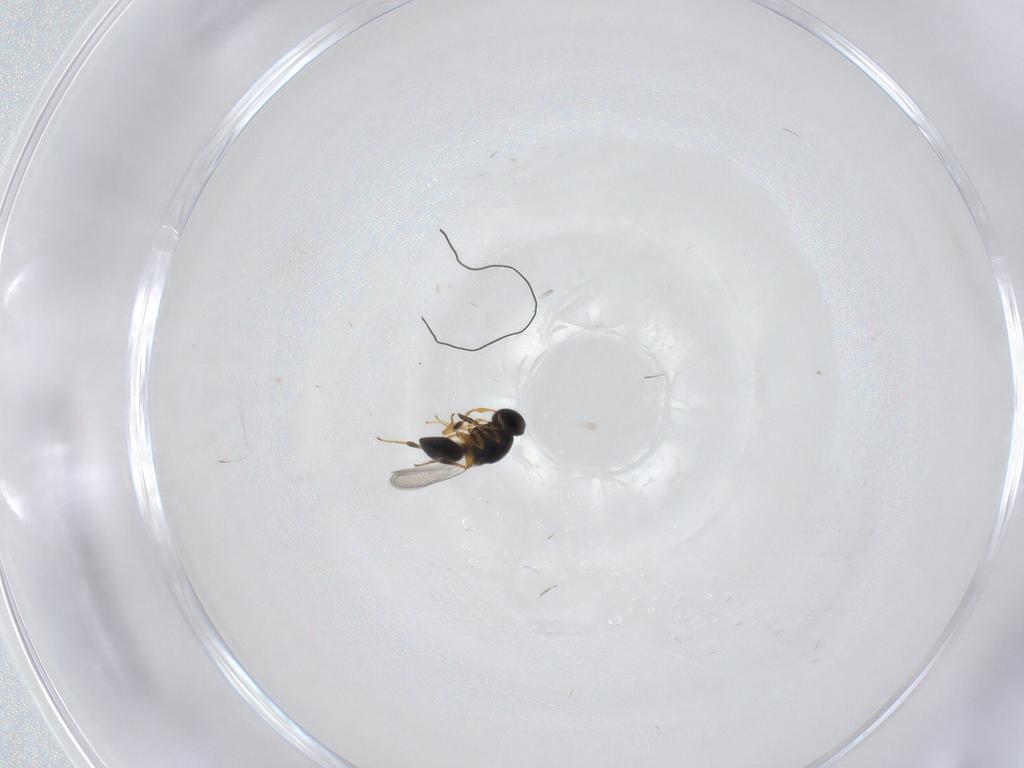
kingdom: Animalia
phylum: Arthropoda
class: Insecta
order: Hymenoptera
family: Platygastridae
